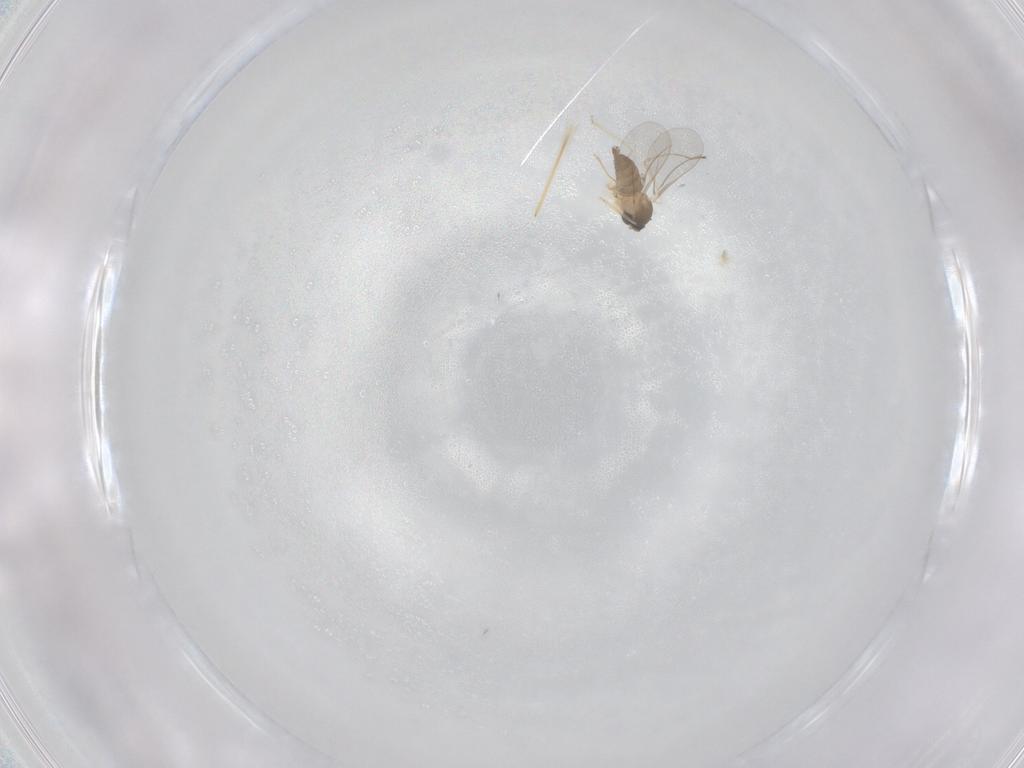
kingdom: Animalia
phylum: Arthropoda
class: Insecta
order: Diptera
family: Cecidomyiidae
